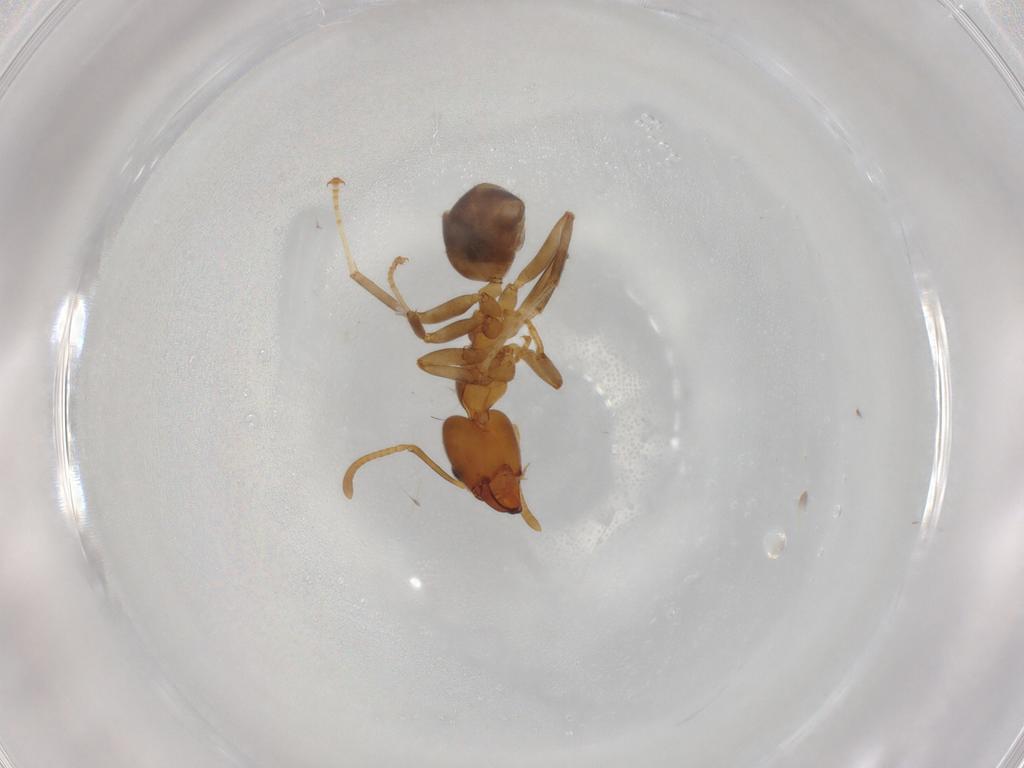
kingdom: Animalia
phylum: Arthropoda
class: Insecta
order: Hymenoptera
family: Formicidae
